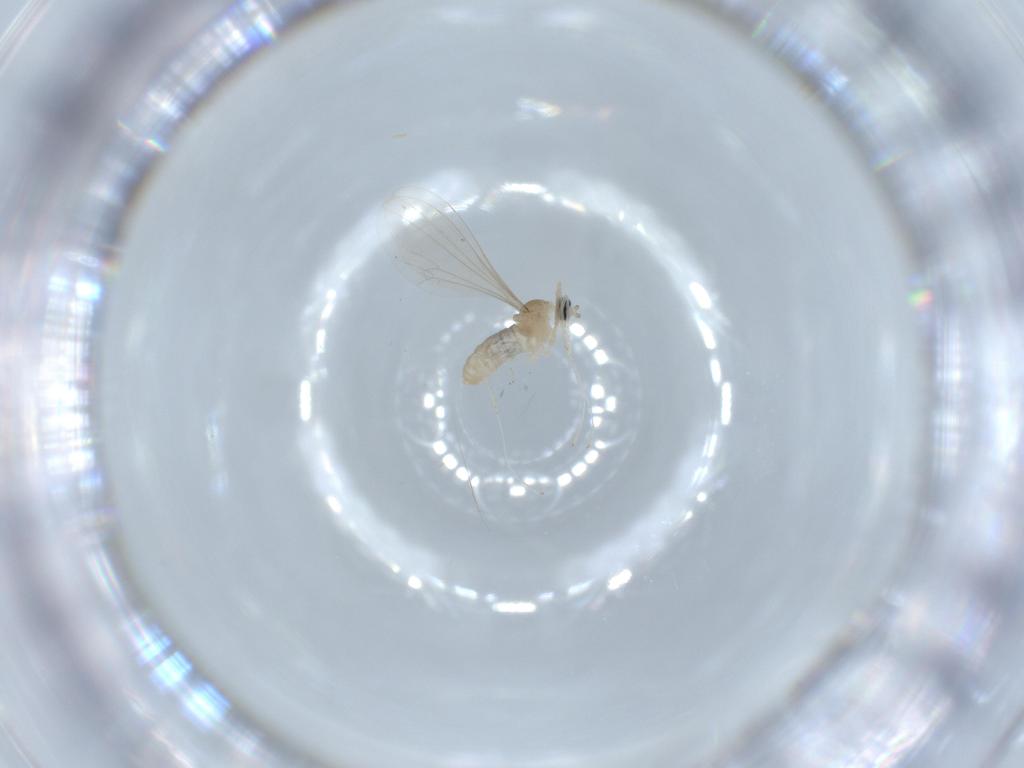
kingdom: Animalia
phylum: Arthropoda
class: Insecta
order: Diptera
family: Cecidomyiidae
